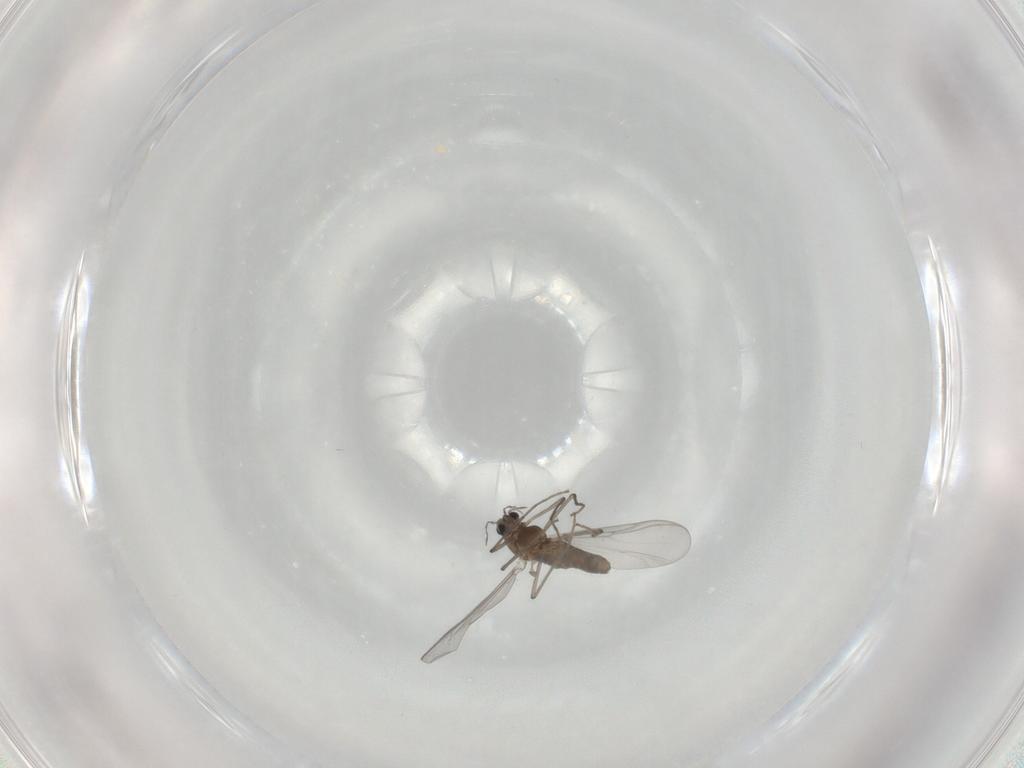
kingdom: Animalia
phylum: Arthropoda
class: Insecta
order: Diptera
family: Chironomidae
